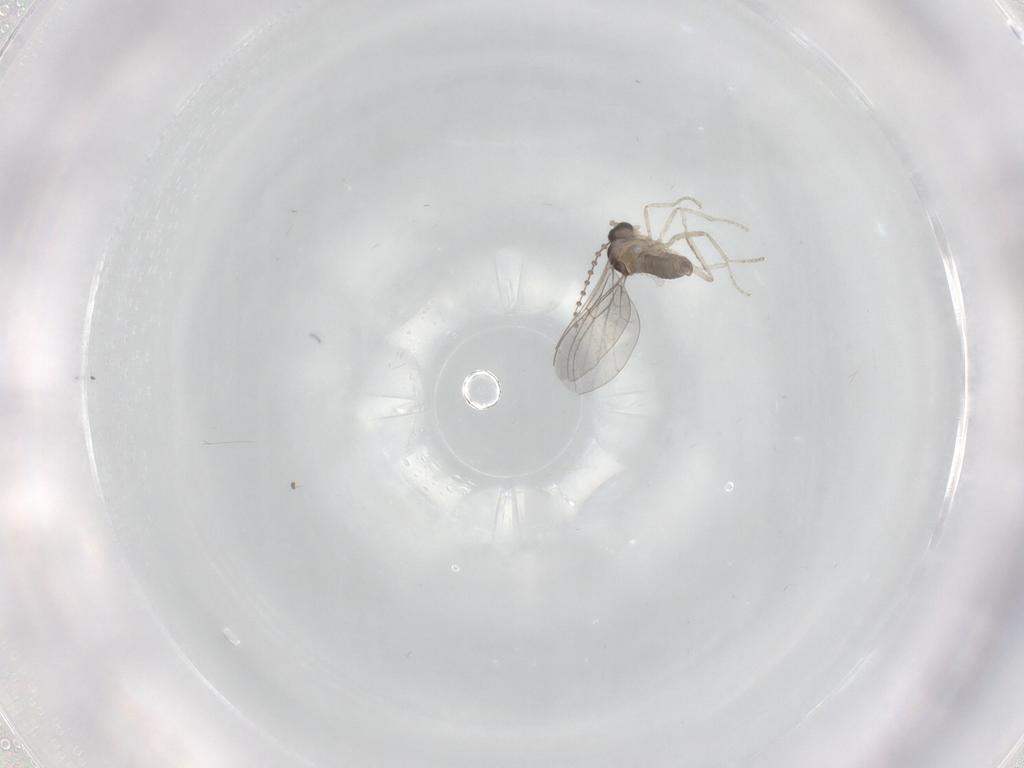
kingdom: Animalia
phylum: Arthropoda
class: Insecta
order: Diptera
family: Cecidomyiidae
